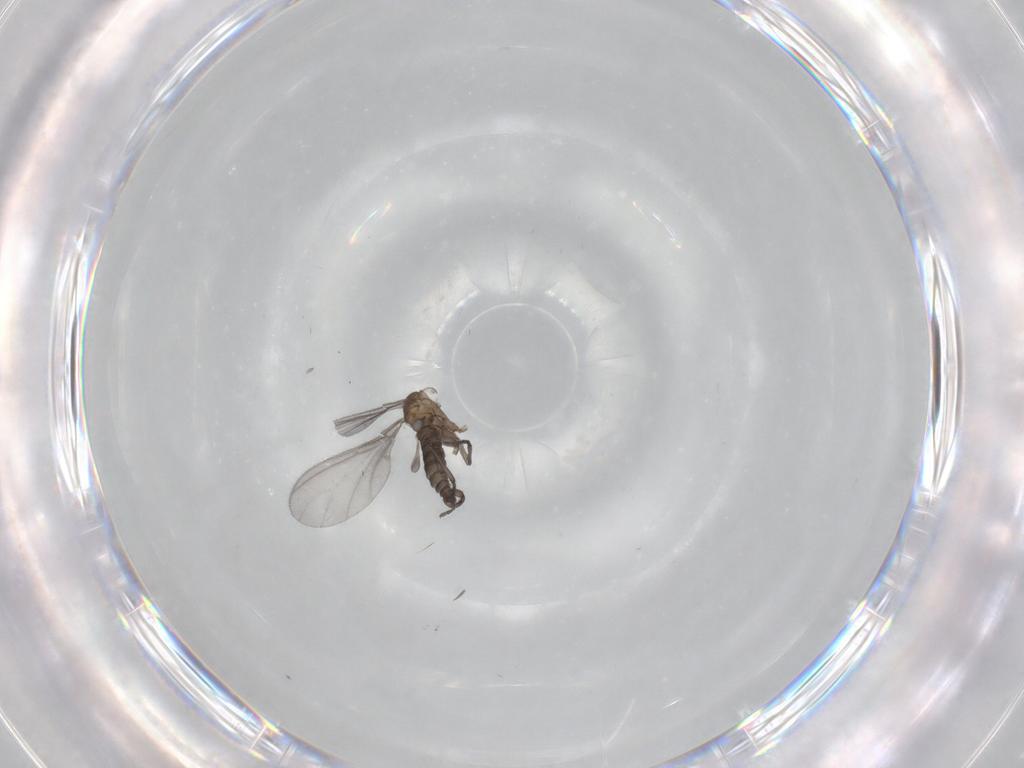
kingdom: Animalia
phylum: Arthropoda
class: Insecta
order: Diptera
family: Sciaridae
